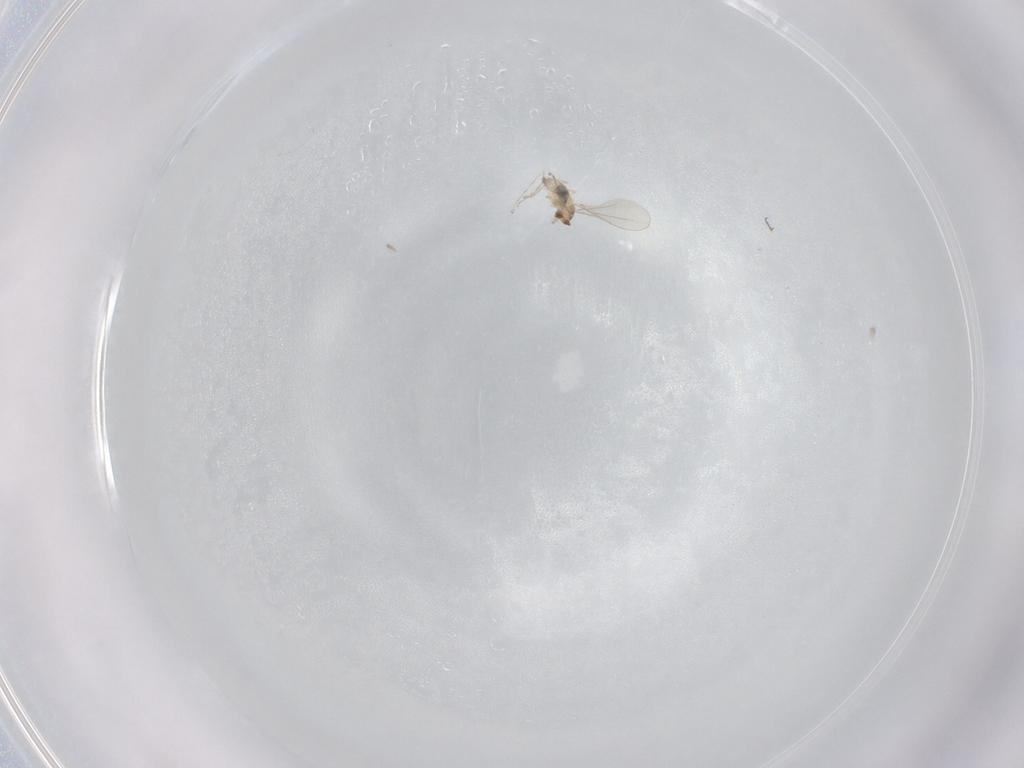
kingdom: Animalia
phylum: Arthropoda
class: Insecta
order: Diptera
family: Cecidomyiidae
